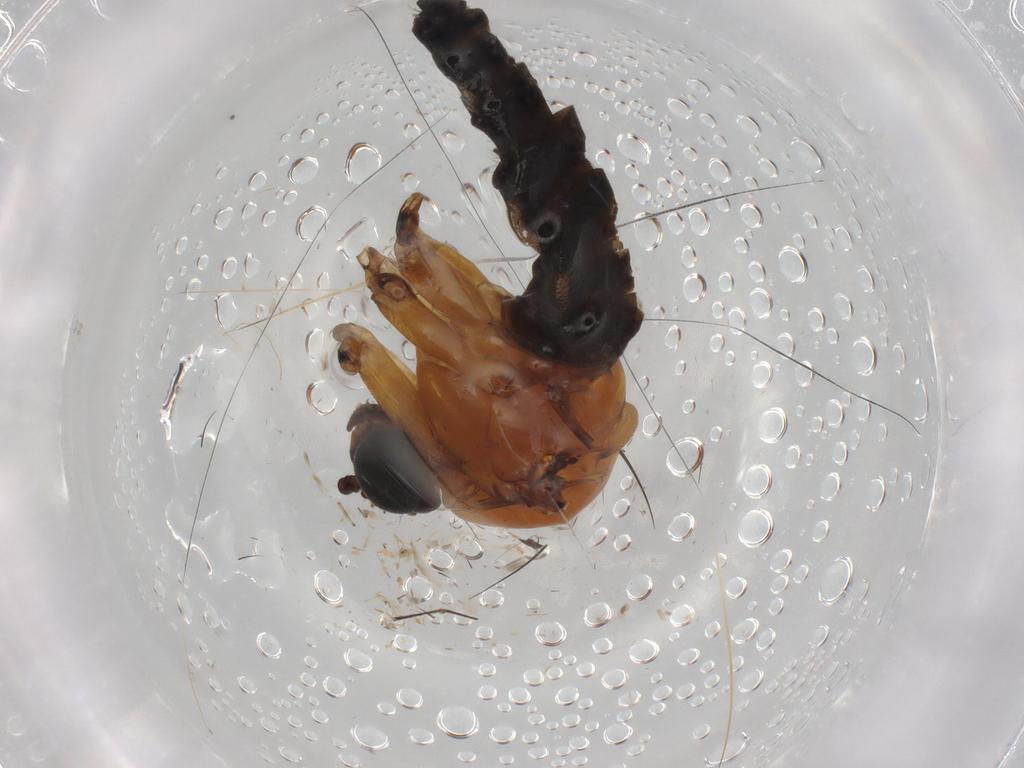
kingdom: Animalia
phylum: Arthropoda
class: Insecta
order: Diptera
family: Sciaridae
